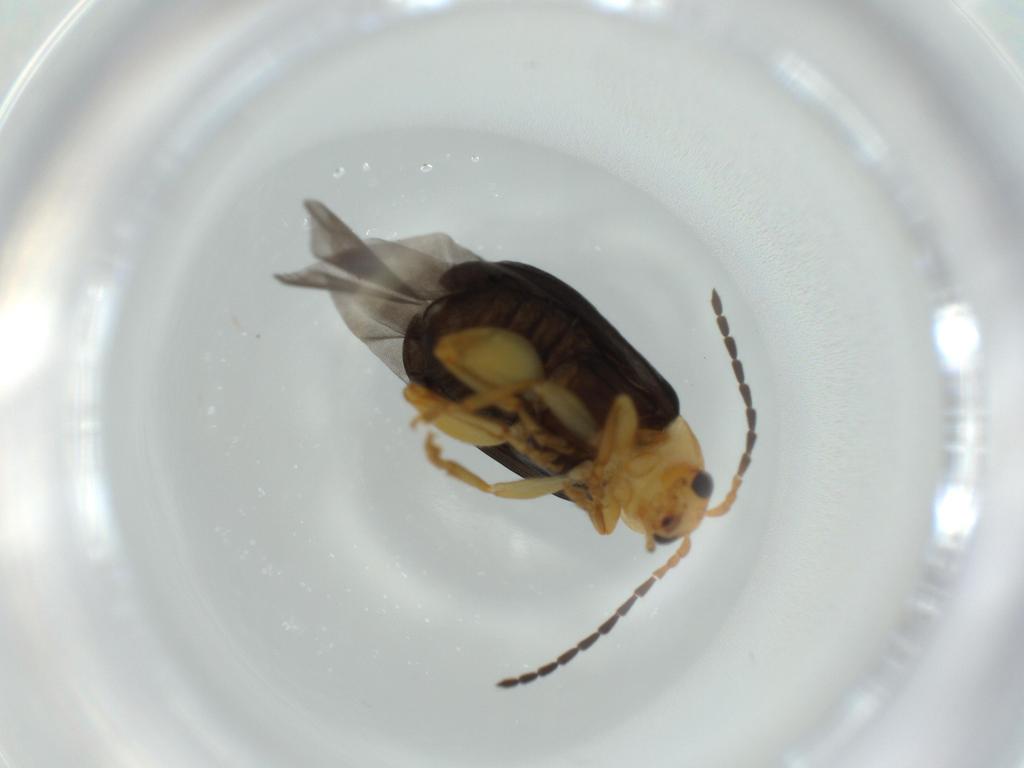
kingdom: Animalia
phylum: Arthropoda
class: Insecta
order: Coleoptera
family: Chrysomelidae
